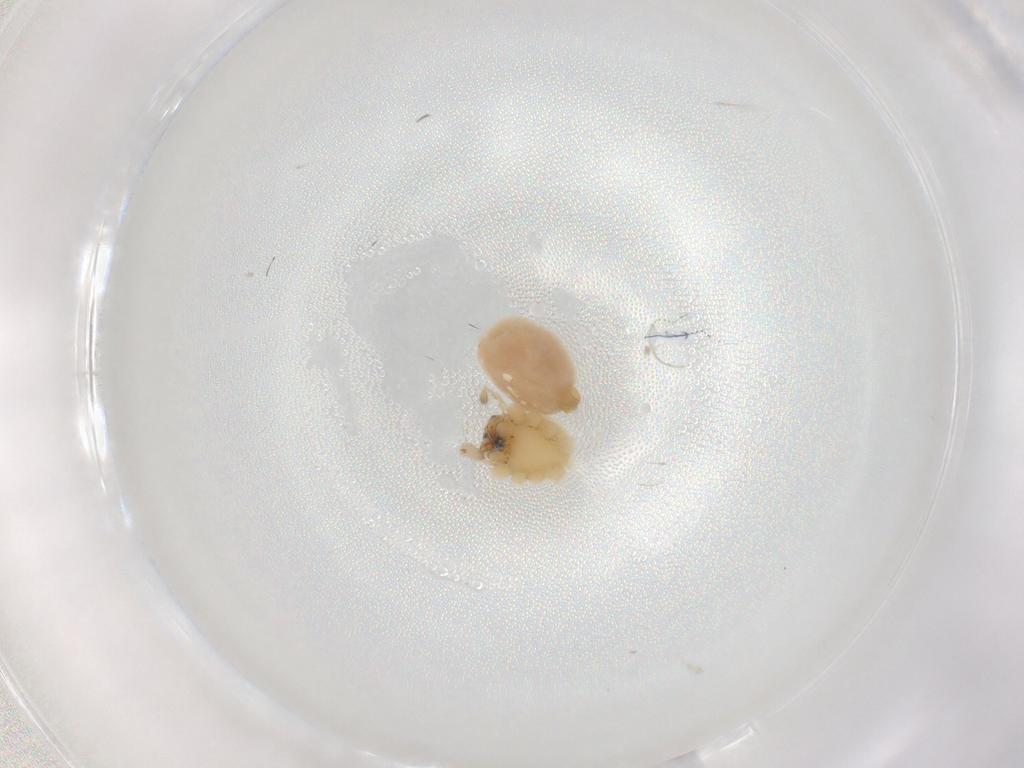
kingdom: Animalia
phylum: Arthropoda
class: Arachnida
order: Araneae
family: Cheiracanthiidae
